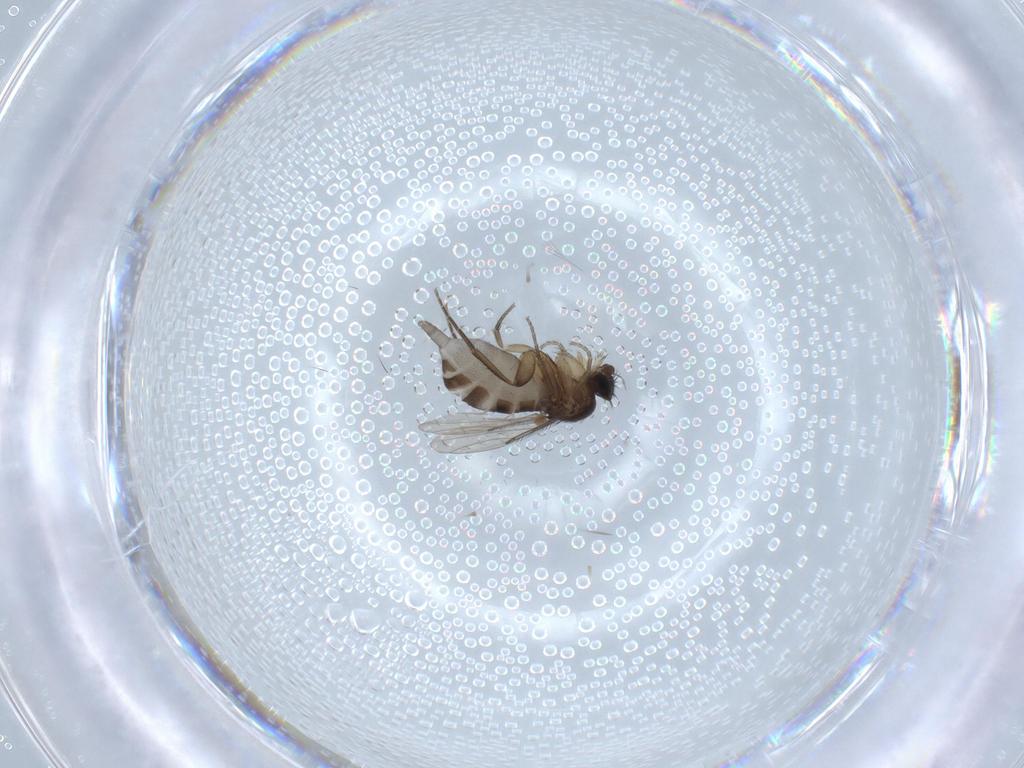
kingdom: Animalia
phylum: Arthropoda
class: Insecta
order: Diptera
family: Phoridae
